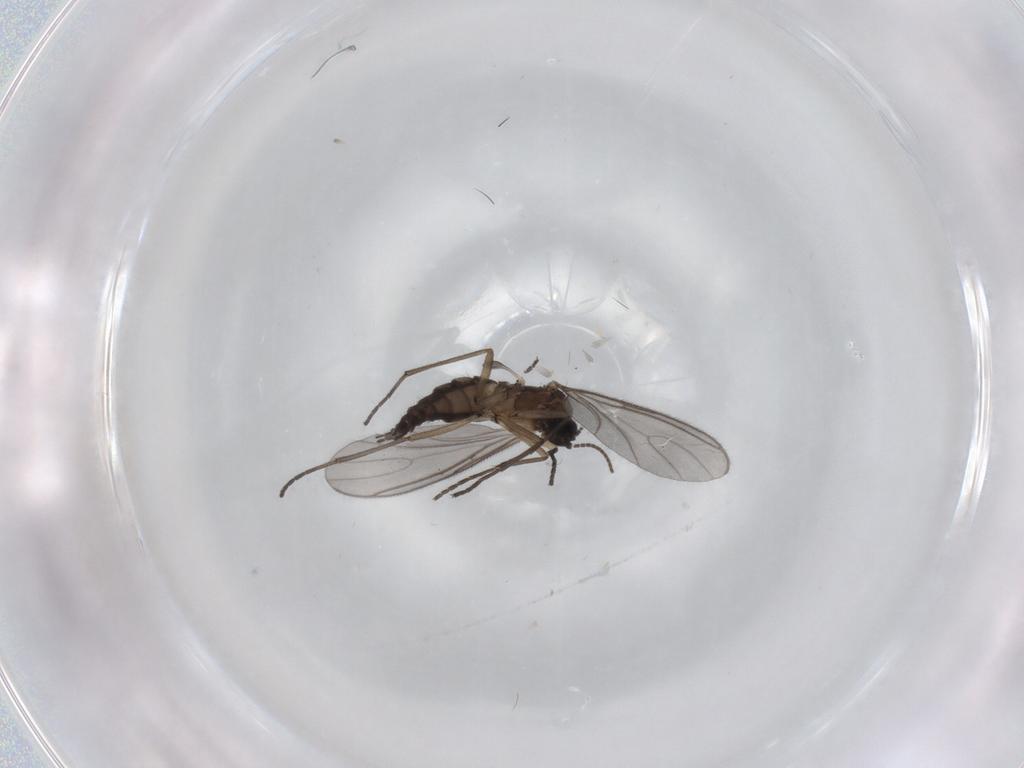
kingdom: Animalia
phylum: Arthropoda
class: Insecta
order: Diptera
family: Sciaridae
